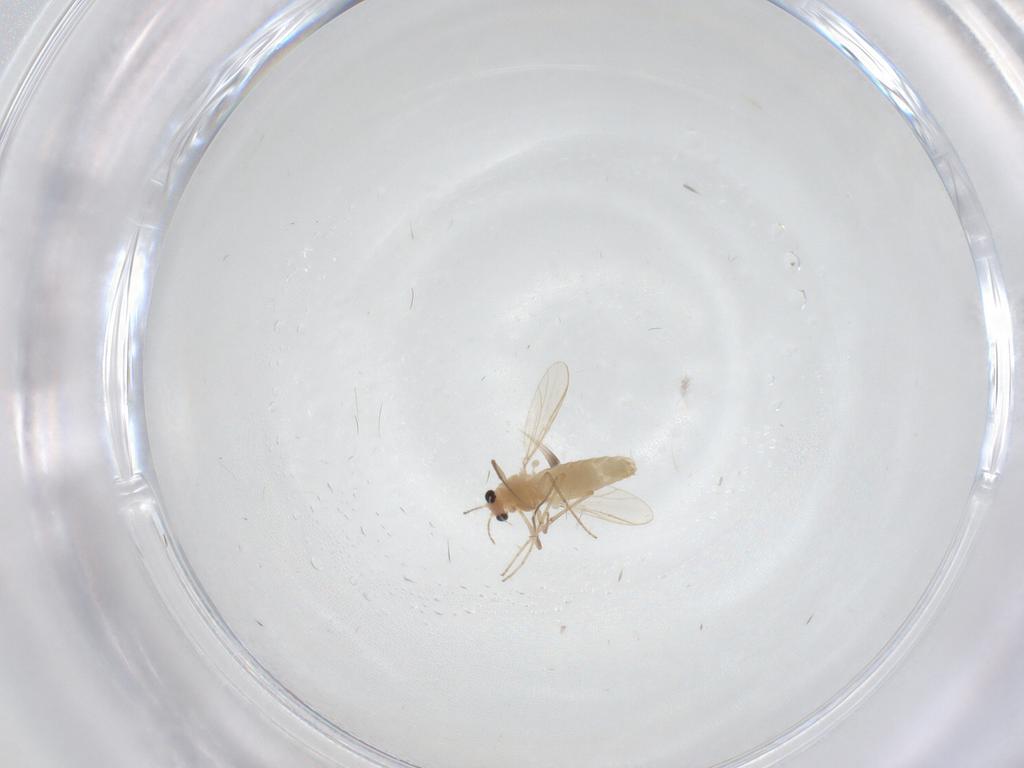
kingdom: Animalia
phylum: Arthropoda
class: Insecta
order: Diptera
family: Chironomidae
